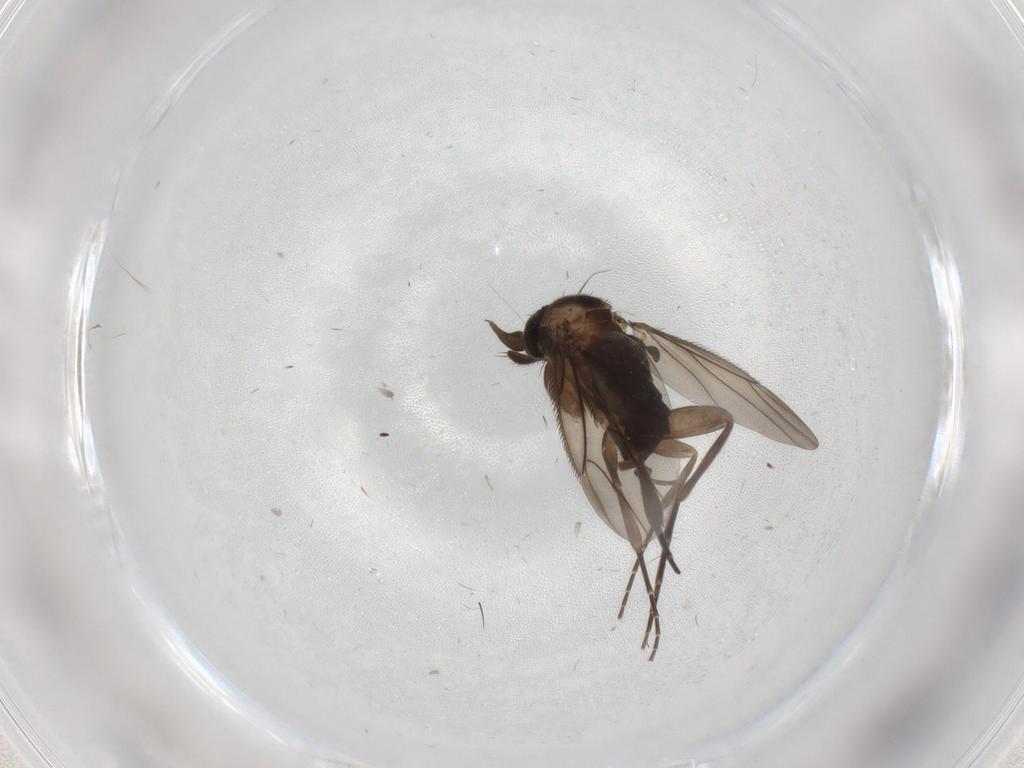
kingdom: Animalia
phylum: Arthropoda
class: Insecta
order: Diptera
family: Phoridae
